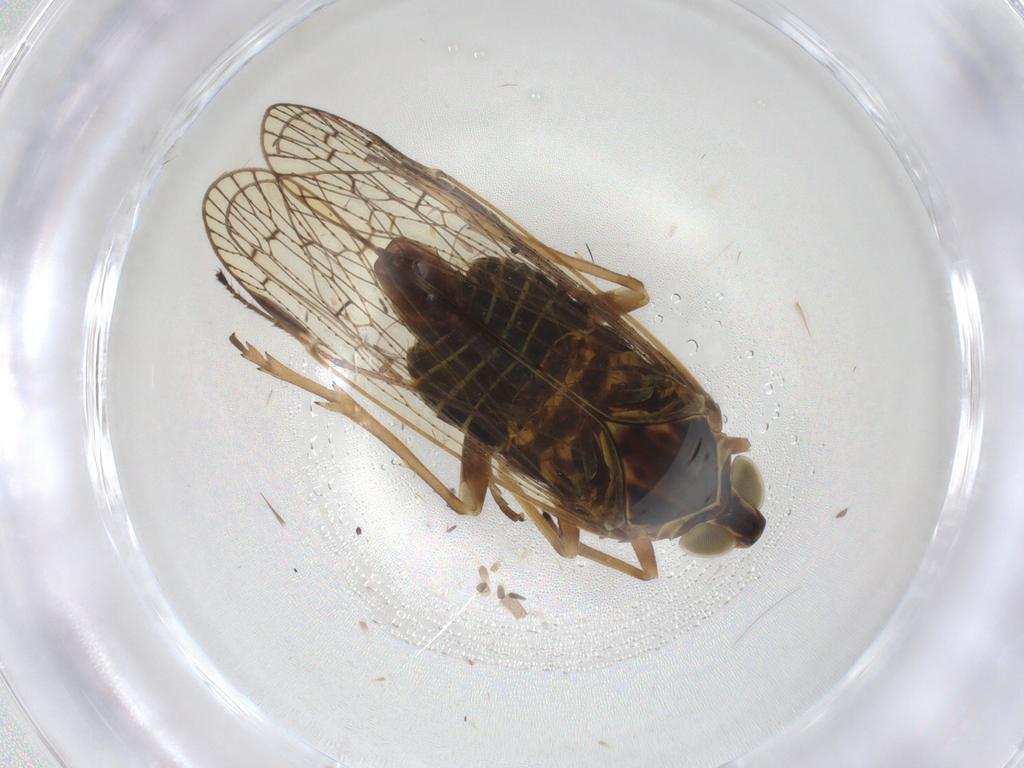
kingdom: Animalia
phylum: Arthropoda
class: Insecta
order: Hemiptera
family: Cixiidae
